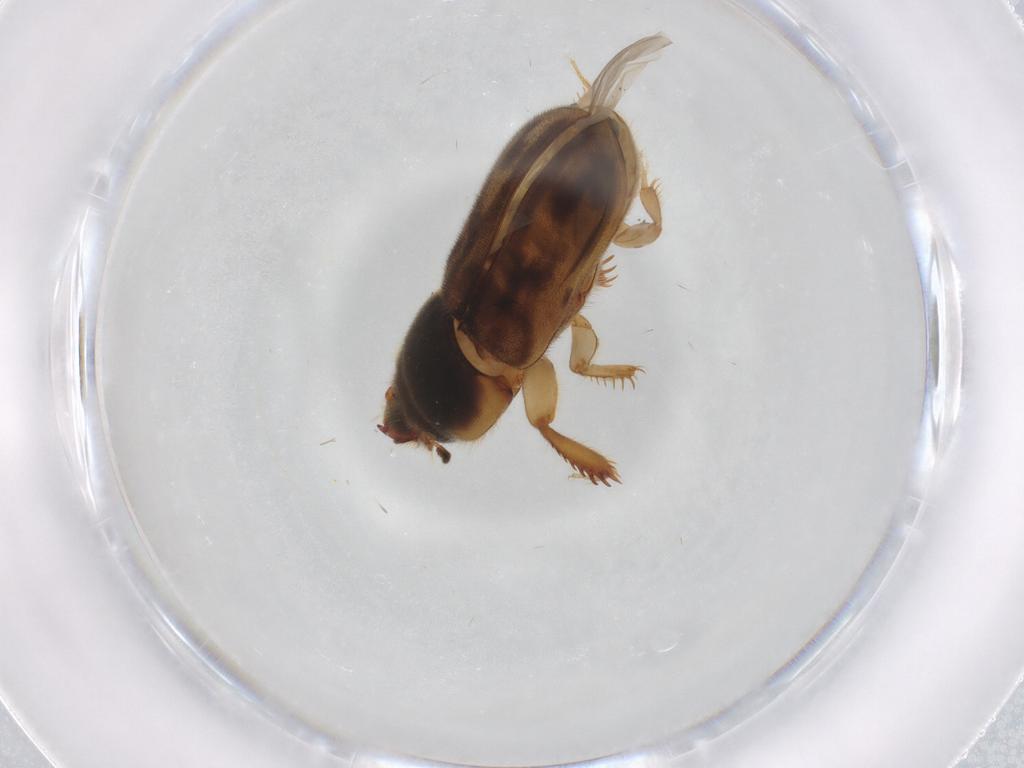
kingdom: Animalia
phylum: Arthropoda
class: Insecta
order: Coleoptera
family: Heteroceridae
